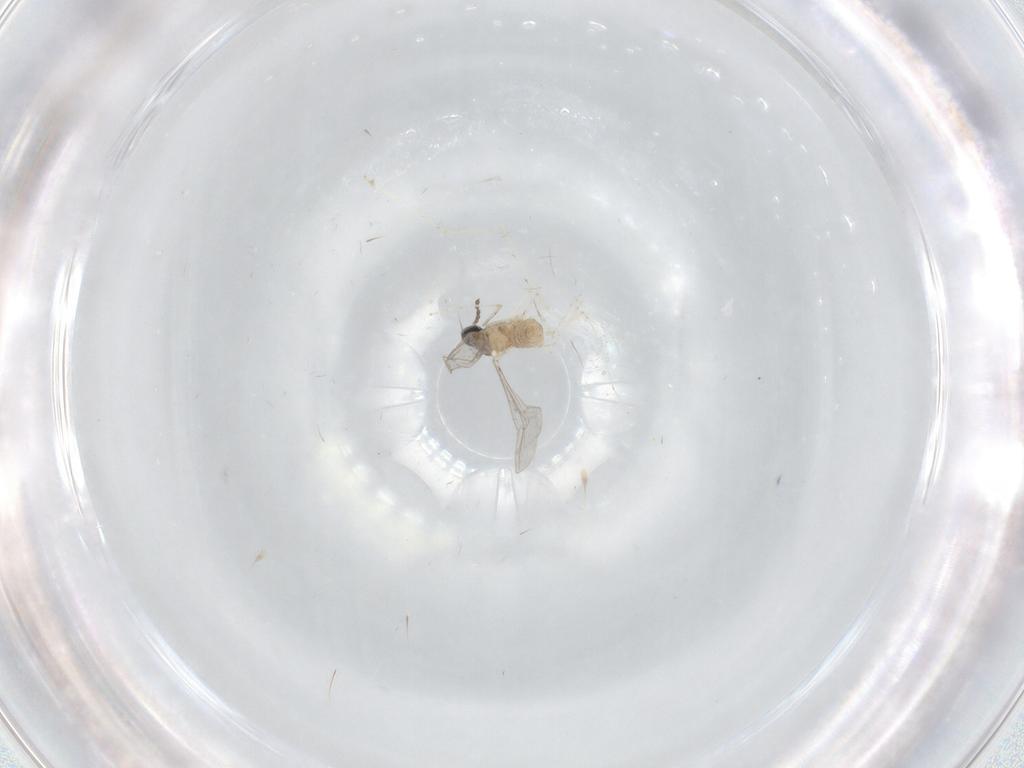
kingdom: Animalia
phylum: Arthropoda
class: Insecta
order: Diptera
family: Cecidomyiidae
